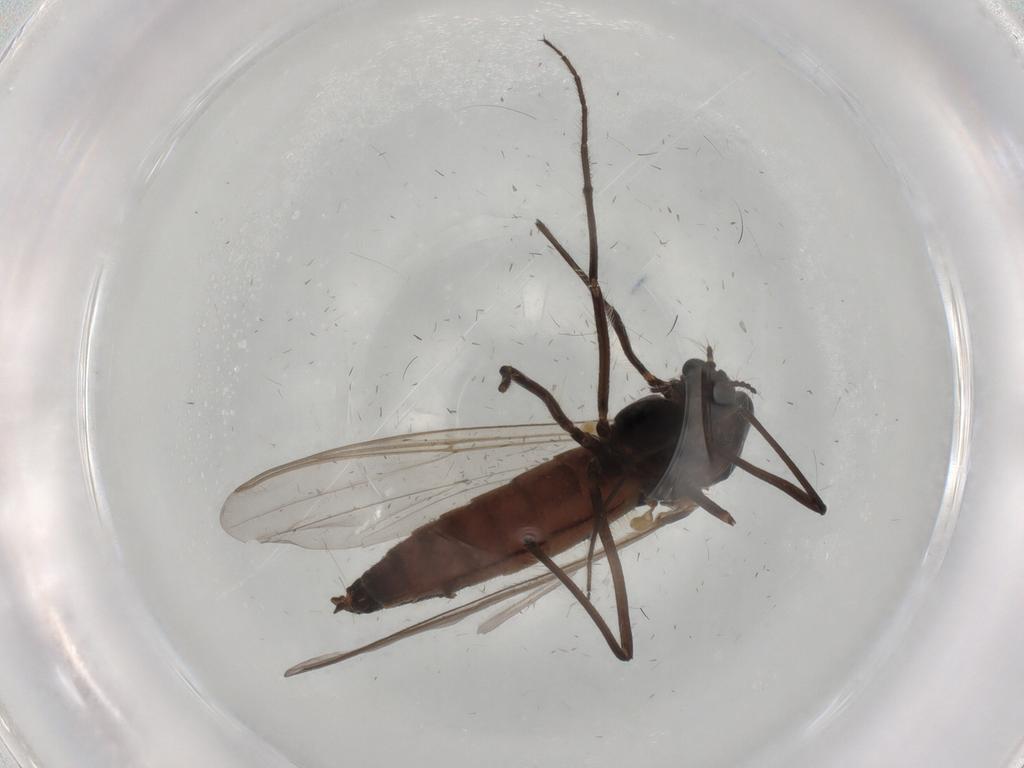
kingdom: Animalia
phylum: Arthropoda
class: Insecta
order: Diptera
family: Chironomidae
